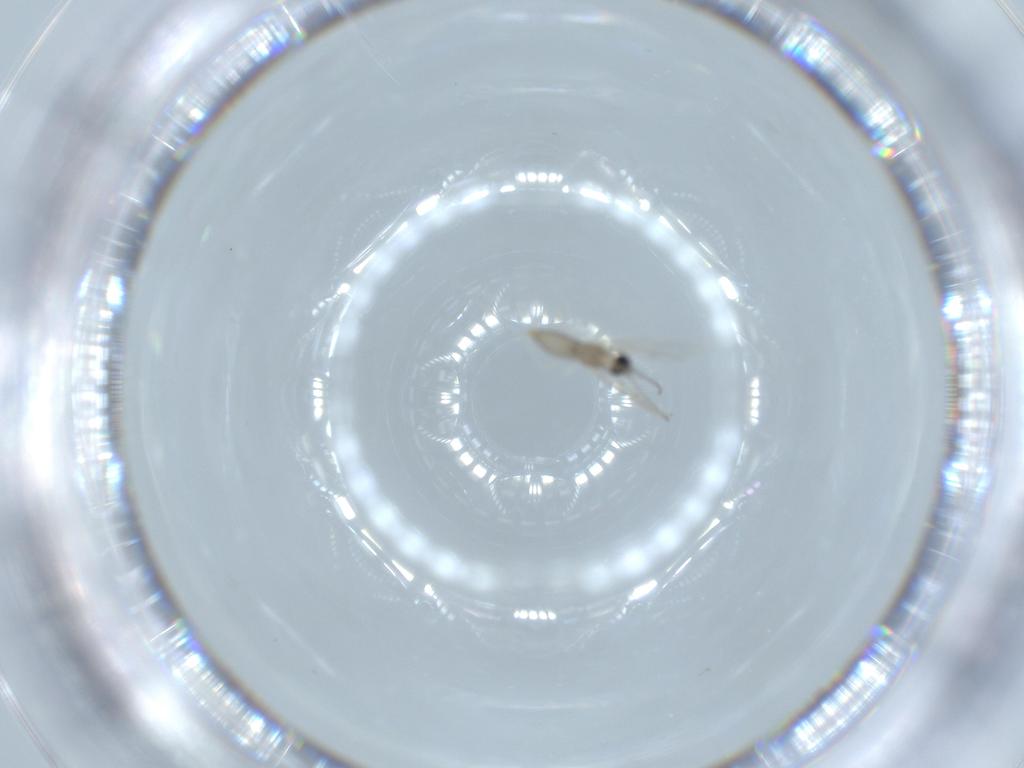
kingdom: Animalia
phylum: Arthropoda
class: Insecta
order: Diptera
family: Cecidomyiidae
